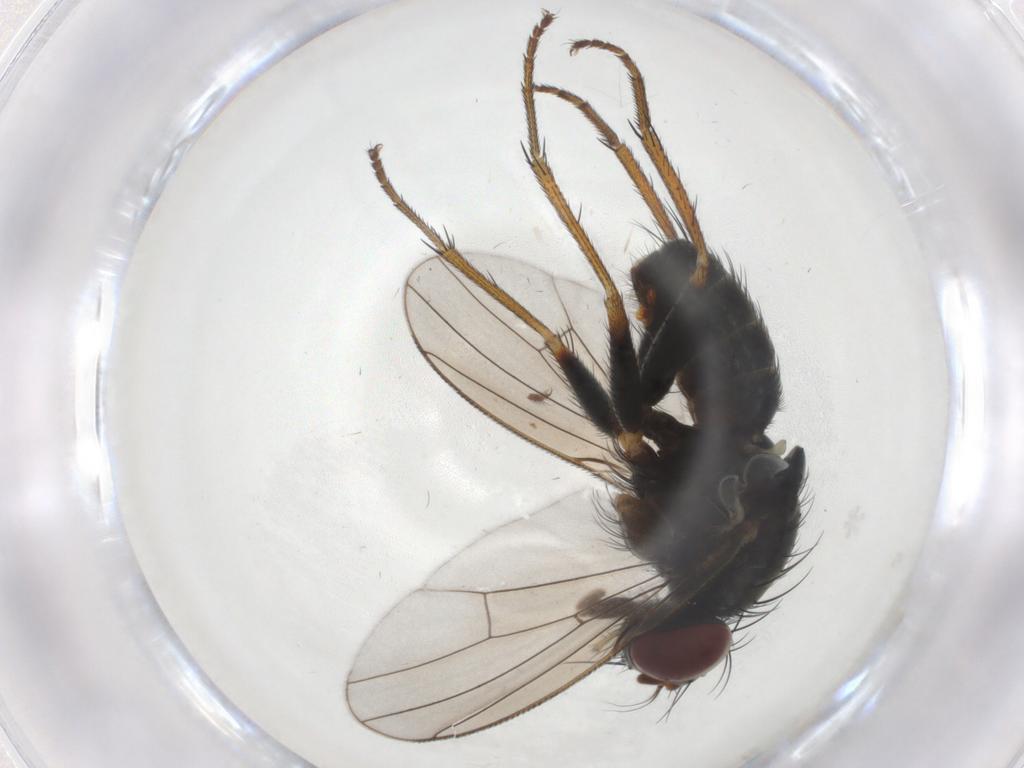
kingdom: Animalia
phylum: Arthropoda
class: Insecta
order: Diptera
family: Muscidae
